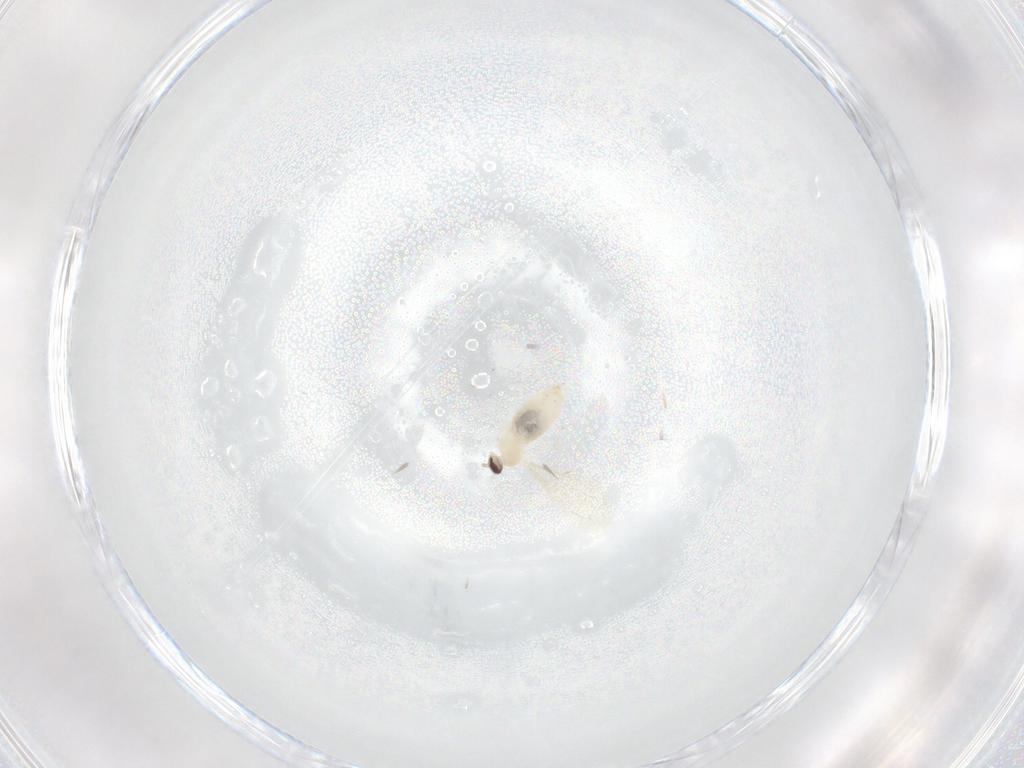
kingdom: Animalia
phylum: Arthropoda
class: Insecta
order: Diptera
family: Cecidomyiidae
